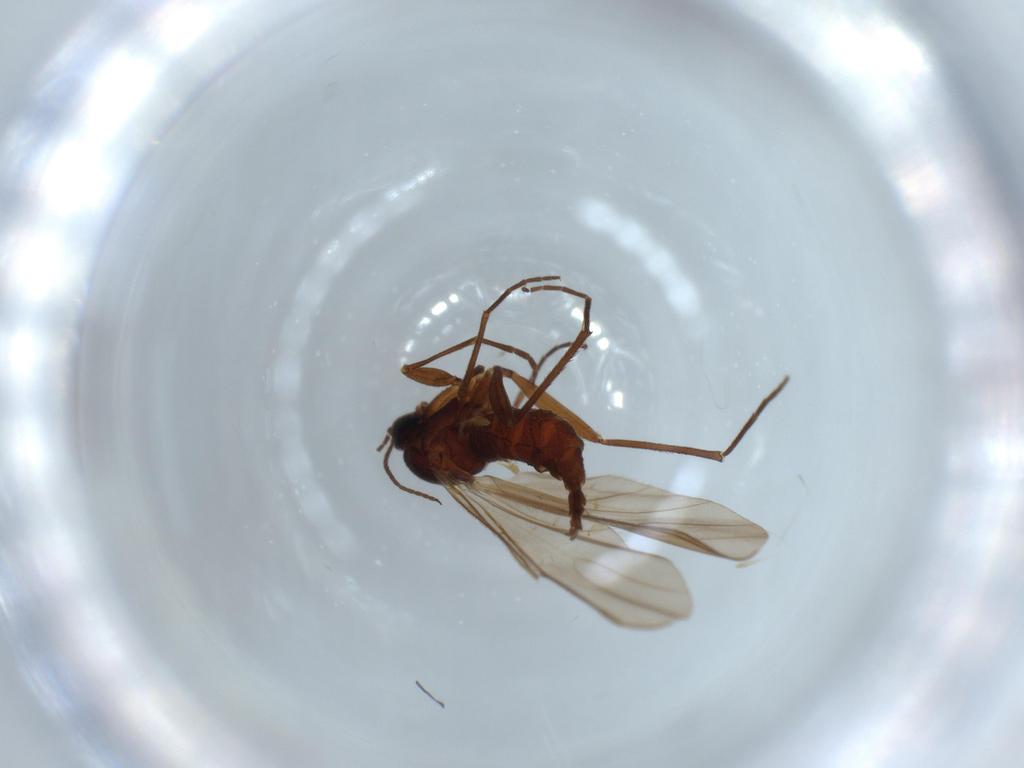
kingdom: Animalia
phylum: Arthropoda
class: Insecta
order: Diptera
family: Sciaridae
